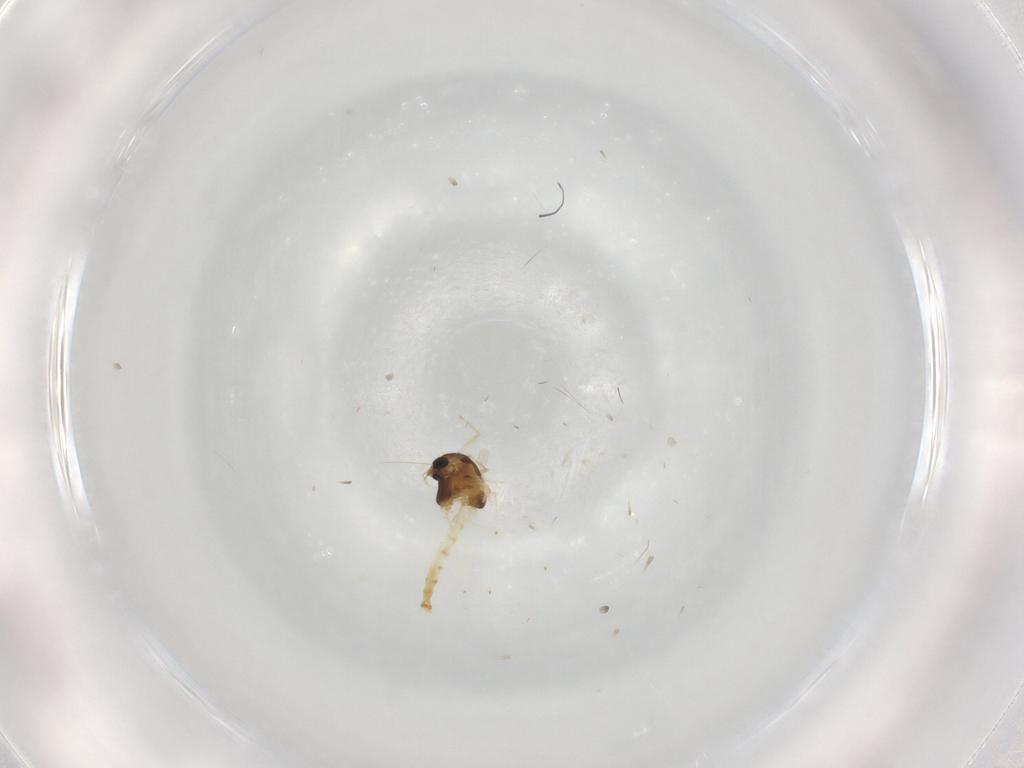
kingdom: Animalia
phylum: Arthropoda
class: Insecta
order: Diptera
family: Chironomidae
